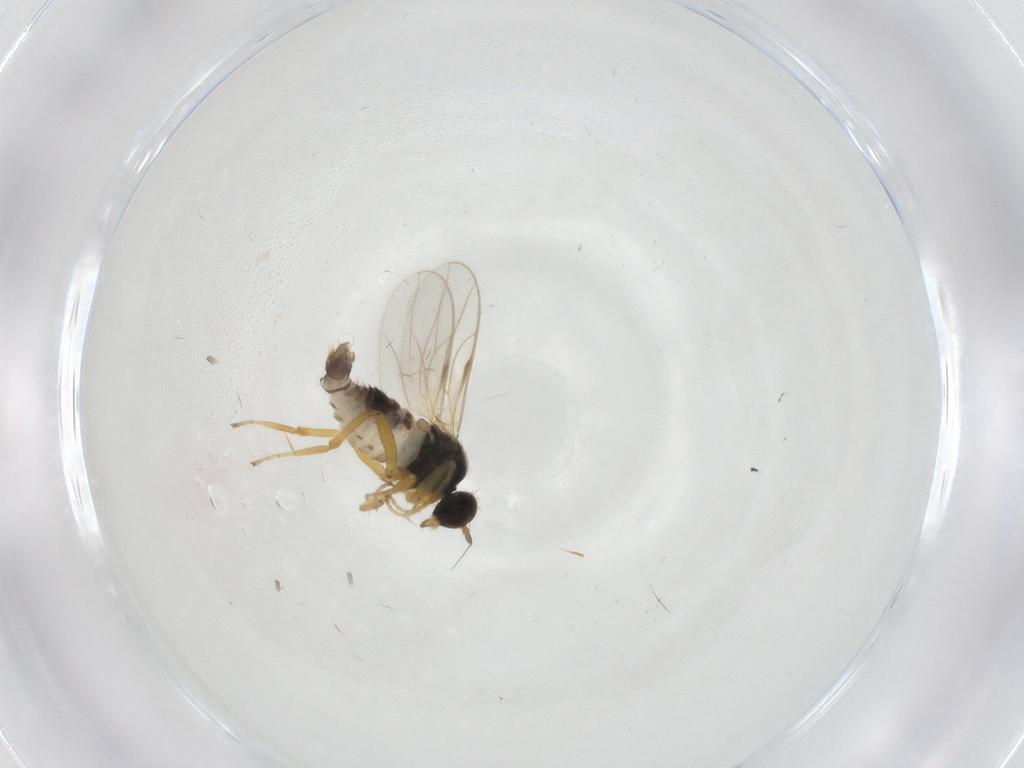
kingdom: Animalia
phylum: Arthropoda
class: Insecta
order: Diptera
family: Hybotidae
